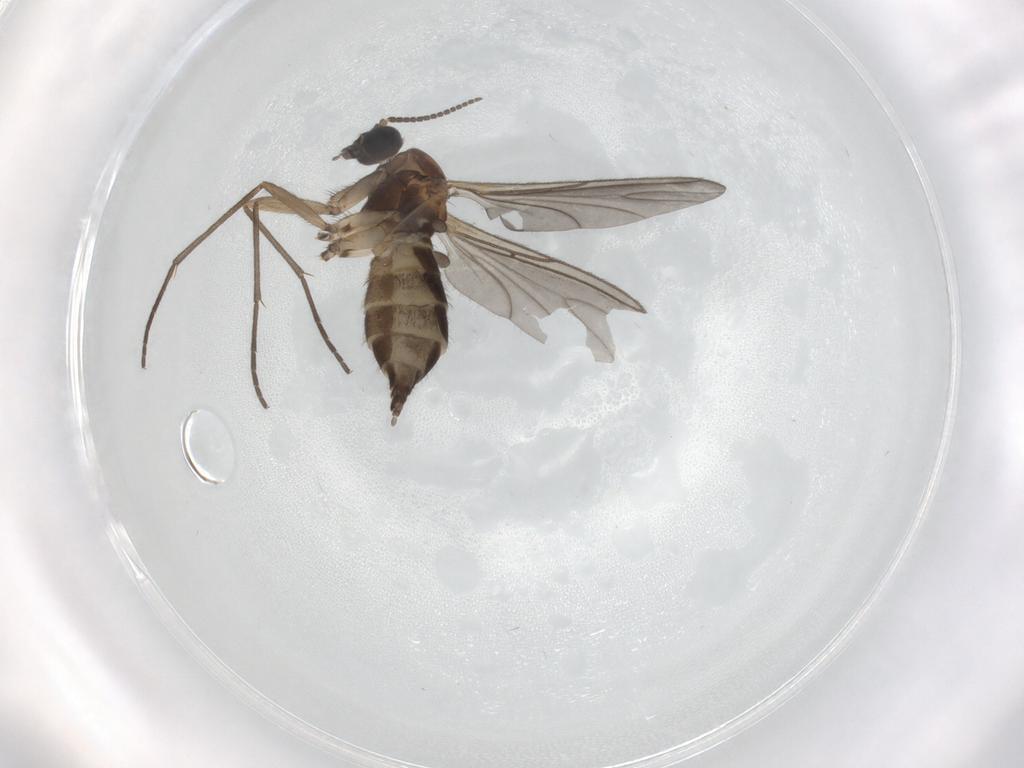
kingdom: Animalia
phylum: Arthropoda
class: Insecta
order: Diptera
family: Sciaridae
